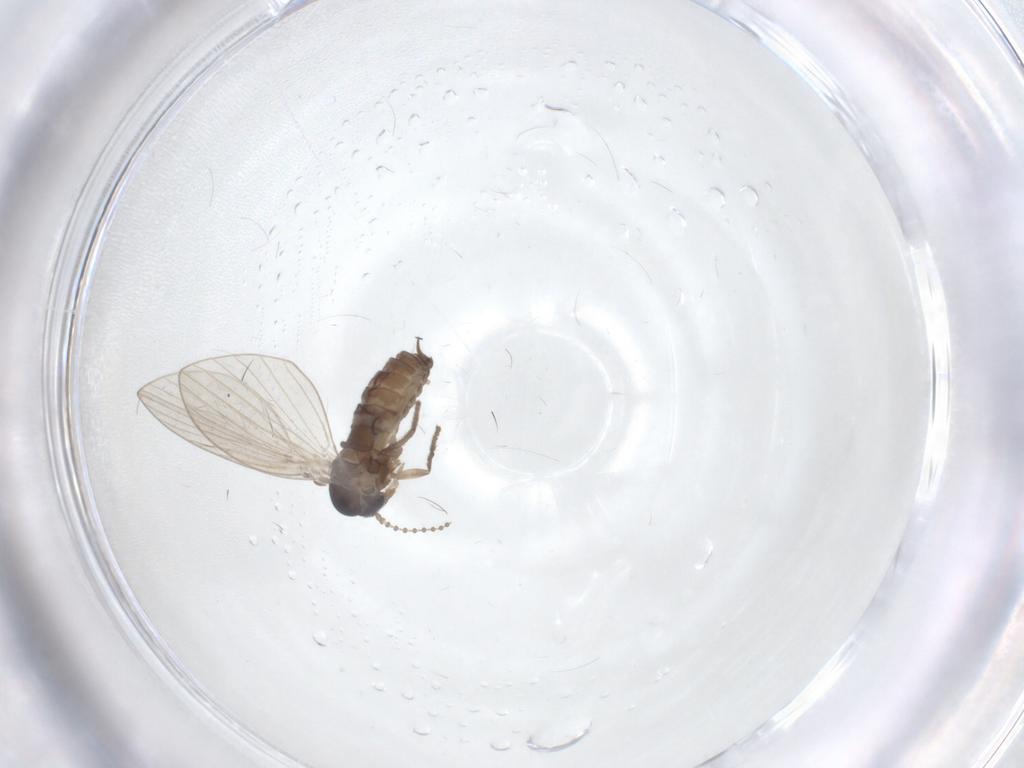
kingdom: Animalia
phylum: Arthropoda
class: Insecta
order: Diptera
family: Psychodidae
